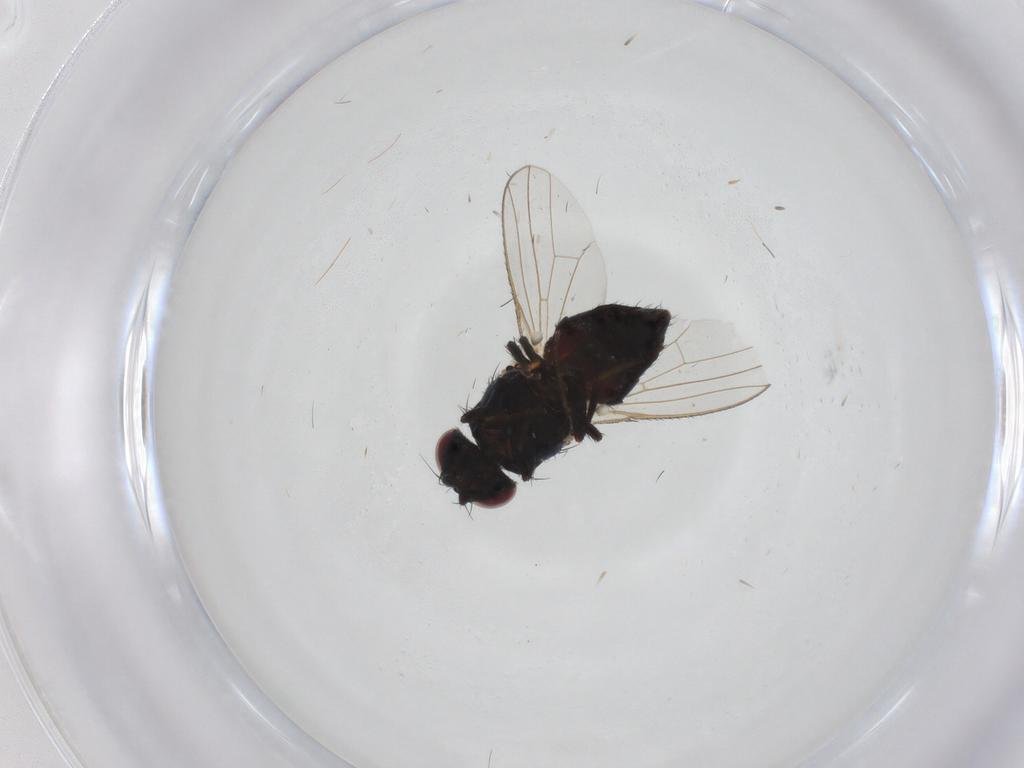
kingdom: Animalia
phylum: Arthropoda
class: Insecta
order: Diptera
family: Carnidae
